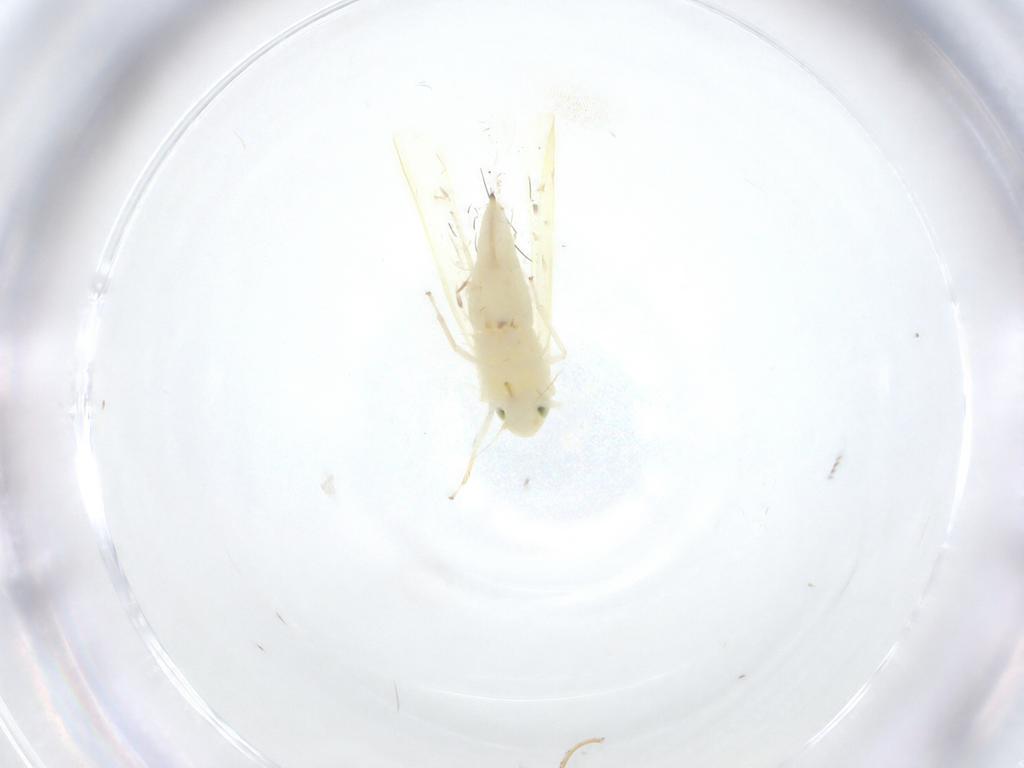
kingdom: Animalia
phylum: Arthropoda
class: Insecta
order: Hemiptera
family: Cicadellidae
